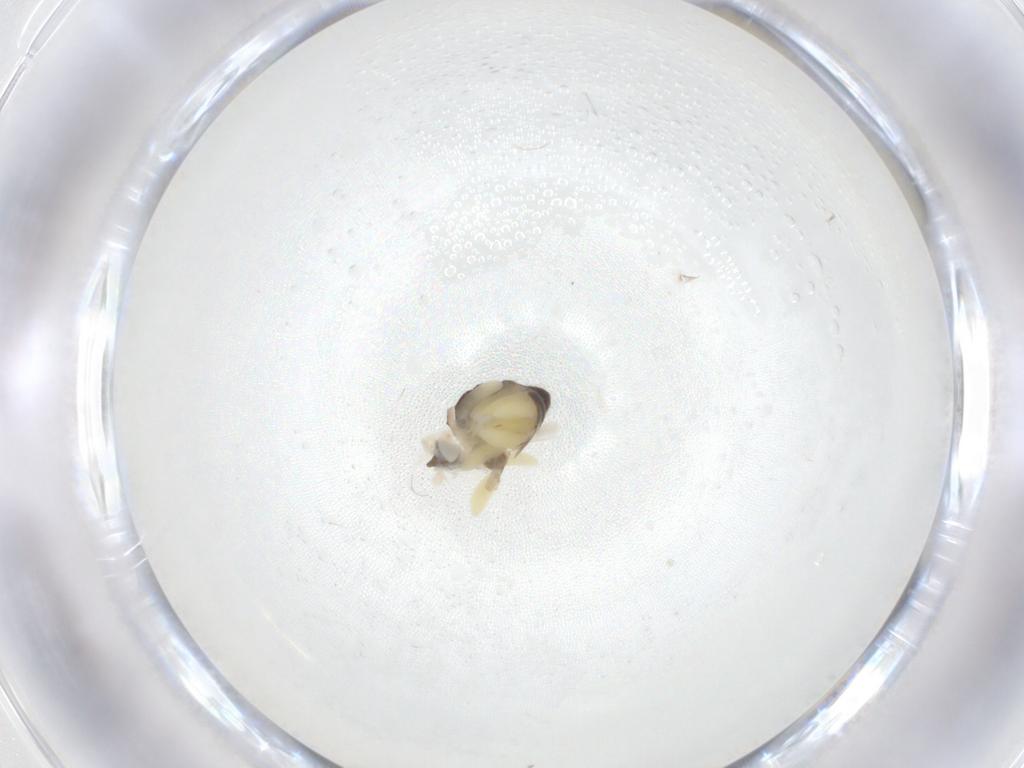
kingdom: Animalia
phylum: Arthropoda
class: Insecta
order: Diptera
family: Dolichopodidae
